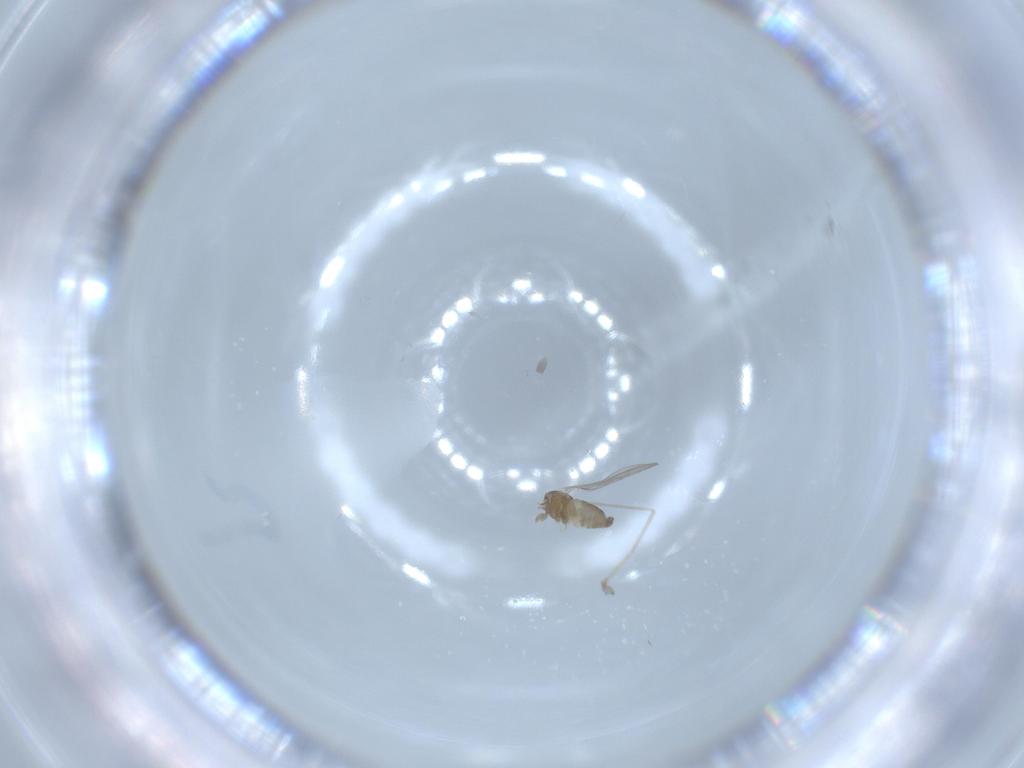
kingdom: Animalia
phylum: Arthropoda
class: Insecta
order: Diptera
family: Cecidomyiidae
